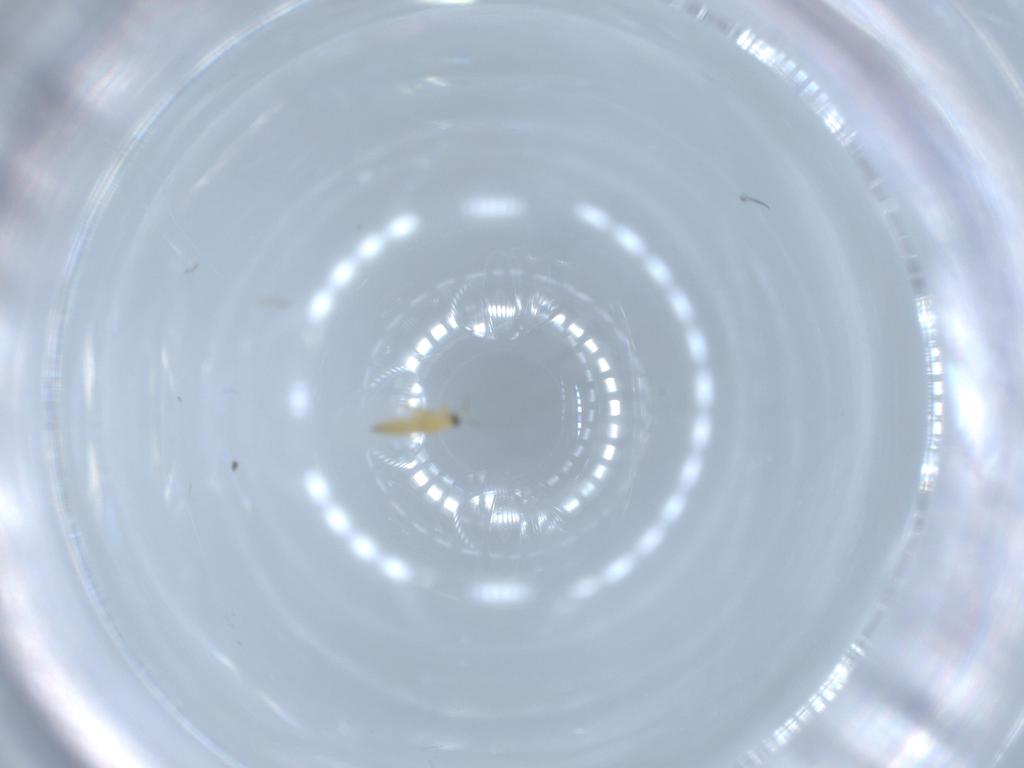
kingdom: Animalia
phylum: Arthropoda
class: Insecta
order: Thysanoptera
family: Thripidae
